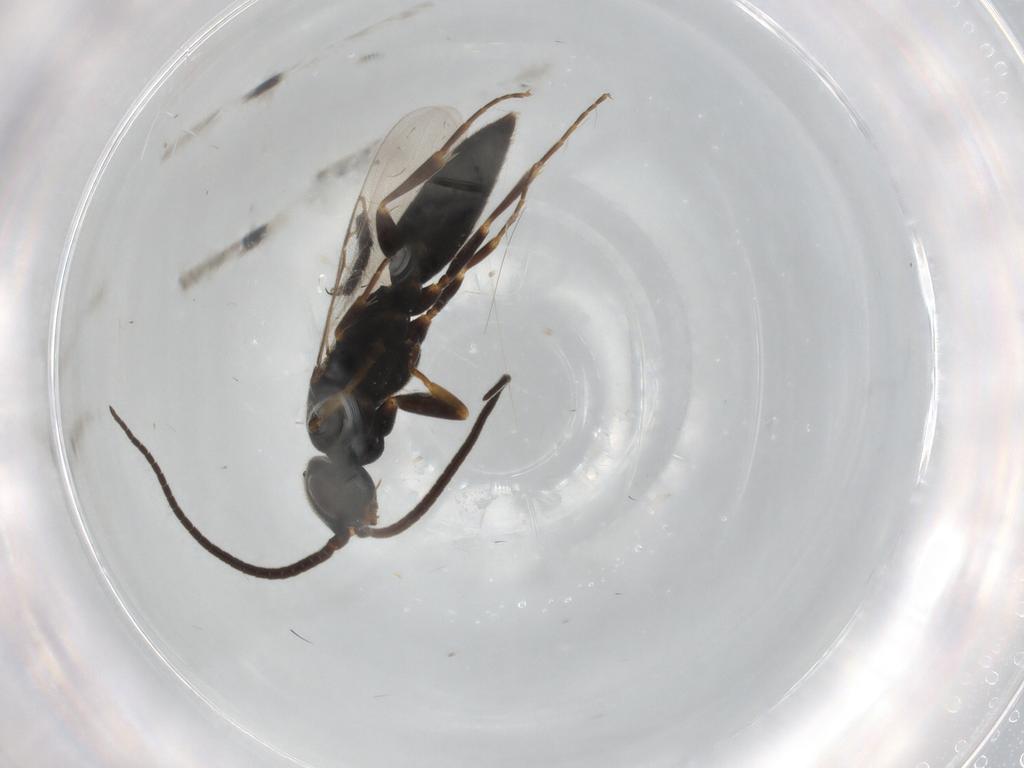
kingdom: Animalia
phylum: Arthropoda
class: Insecta
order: Hymenoptera
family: Sclerogibbidae
